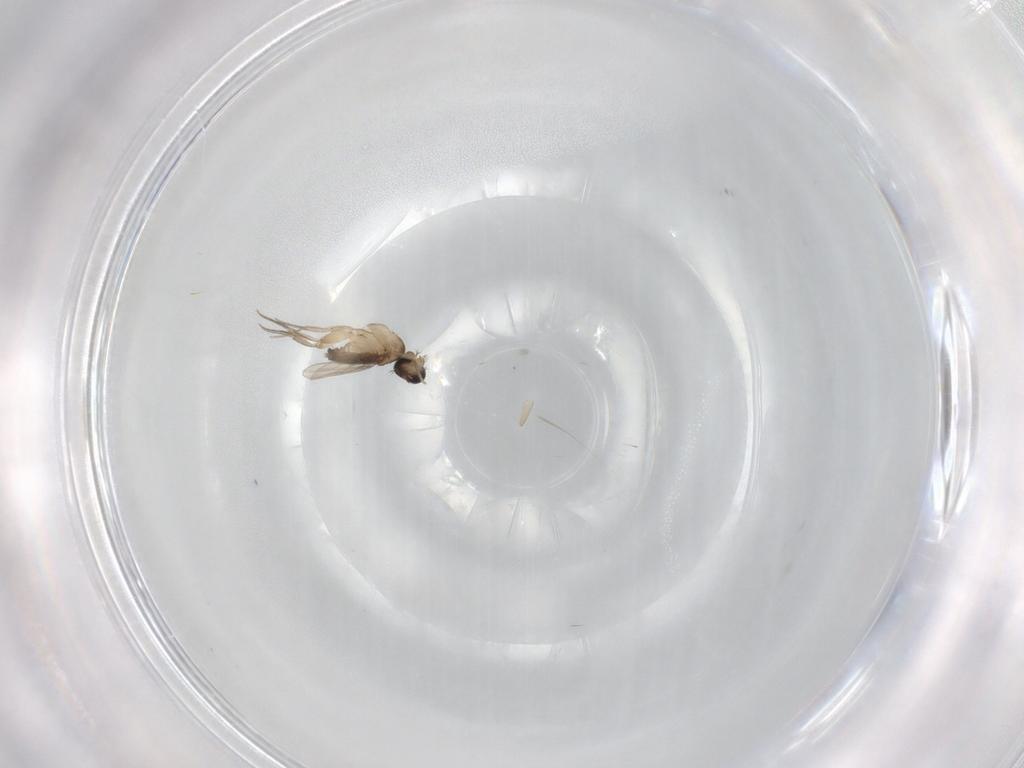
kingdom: Animalia
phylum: Arthropoda
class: Insecta
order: Diptera
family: Phoridae
